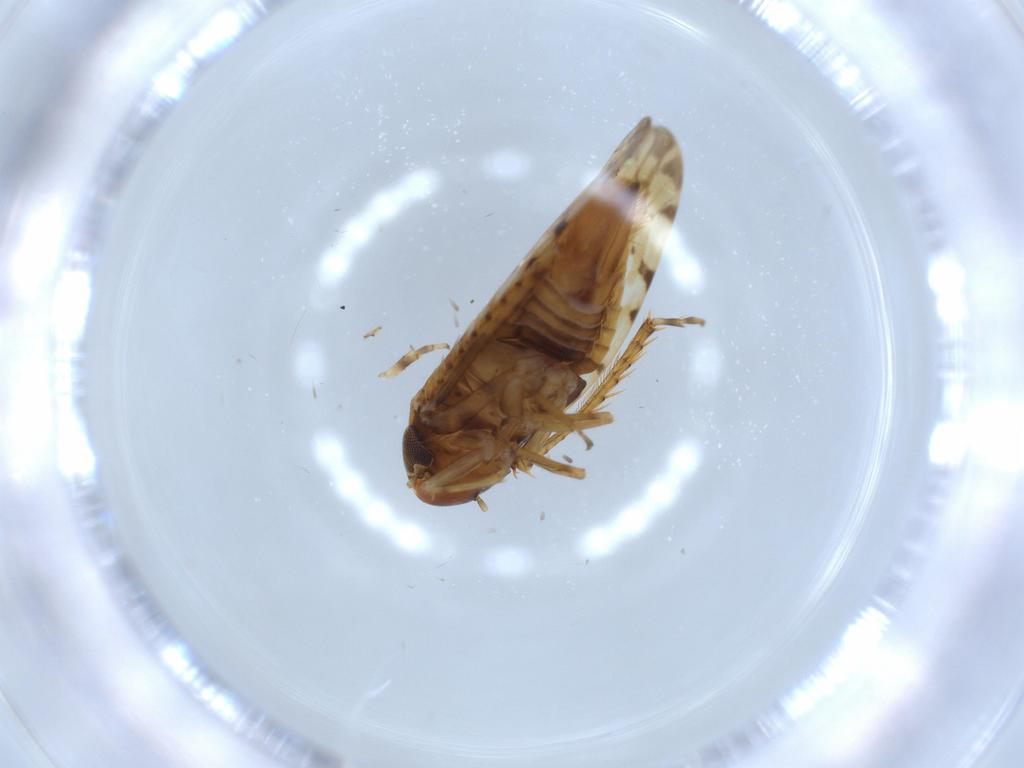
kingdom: Animalia
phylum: Arthropoda
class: Insecta
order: Hemiptera
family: Cicadellidae
